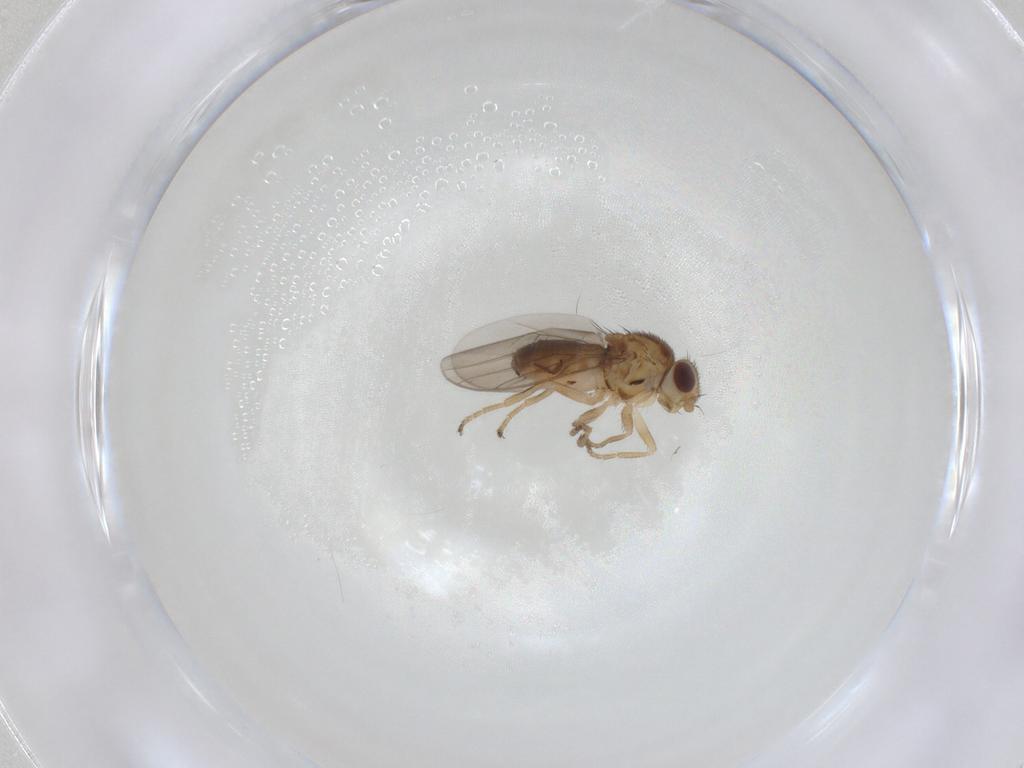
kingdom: Animalia
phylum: Arthropoda
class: Insecta
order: Diptera
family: Chloropidae
